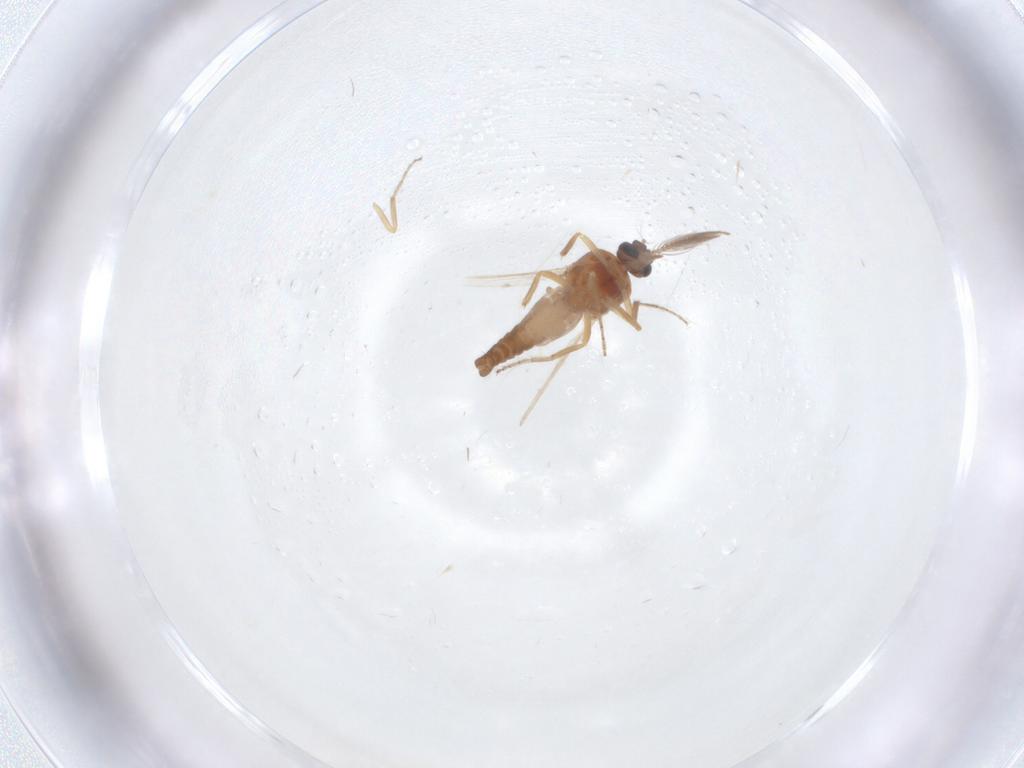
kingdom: Animalia
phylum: Arthropoda
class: Insecta
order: Diptera
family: Ceratopogonidae
